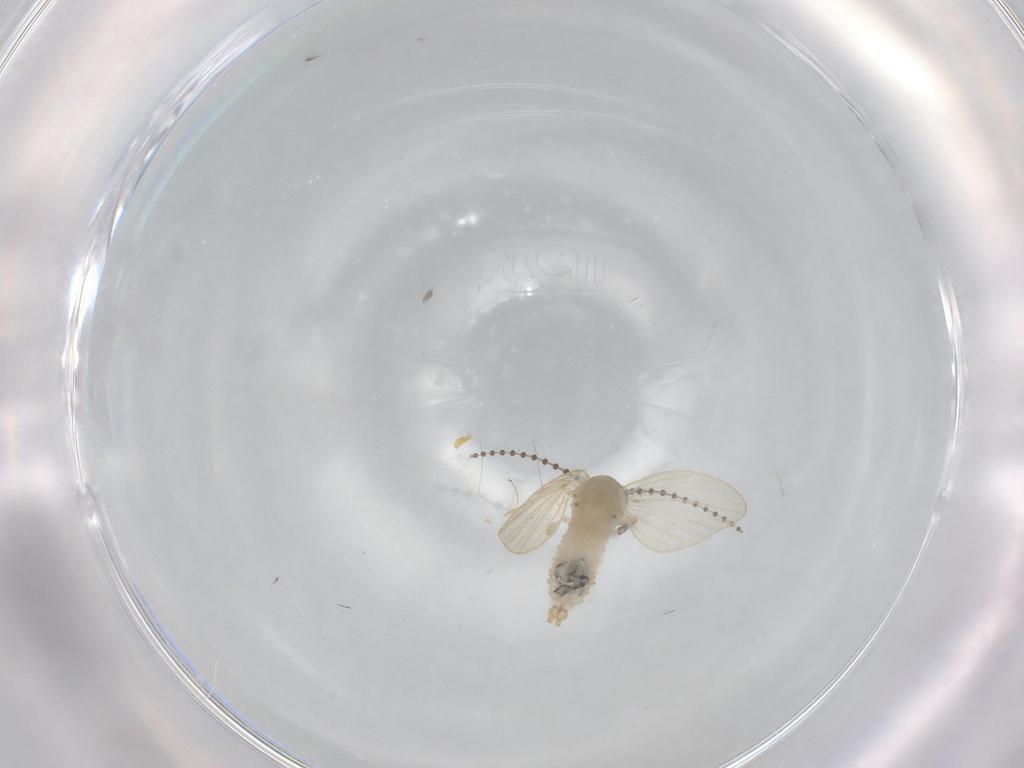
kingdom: Animalia
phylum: Arthropoda
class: Insecta
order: Diptera
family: Psychodidae
